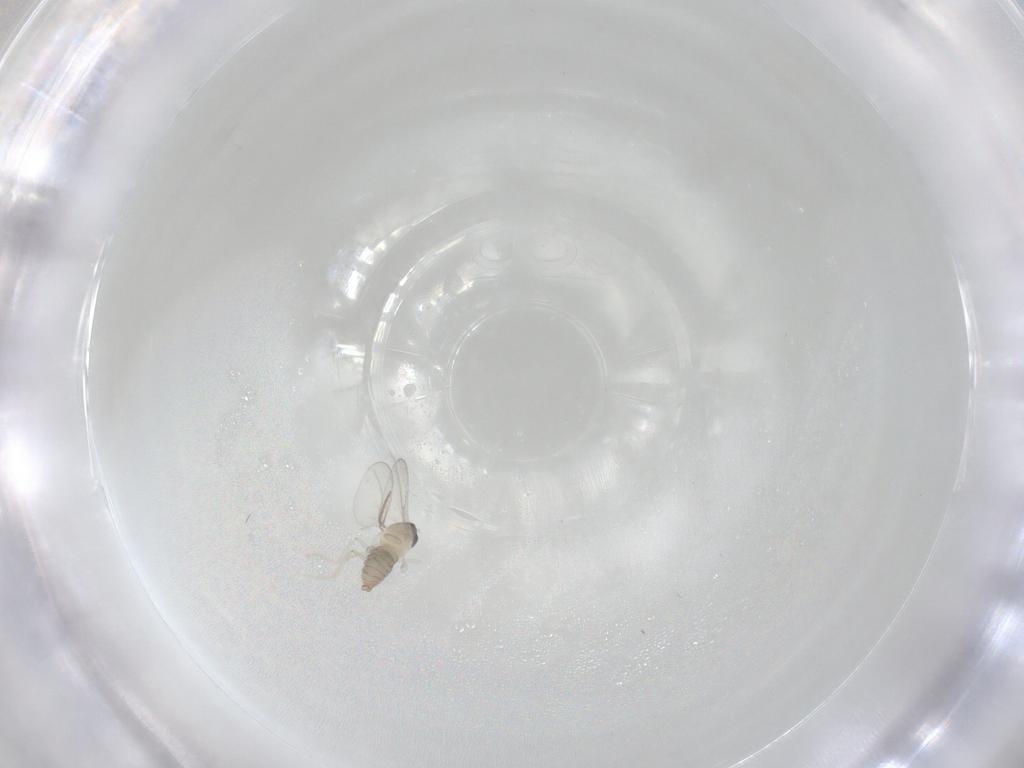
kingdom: Animalia
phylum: Arthropoda
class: Insecta
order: Diptera
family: Cecidomyiidae
